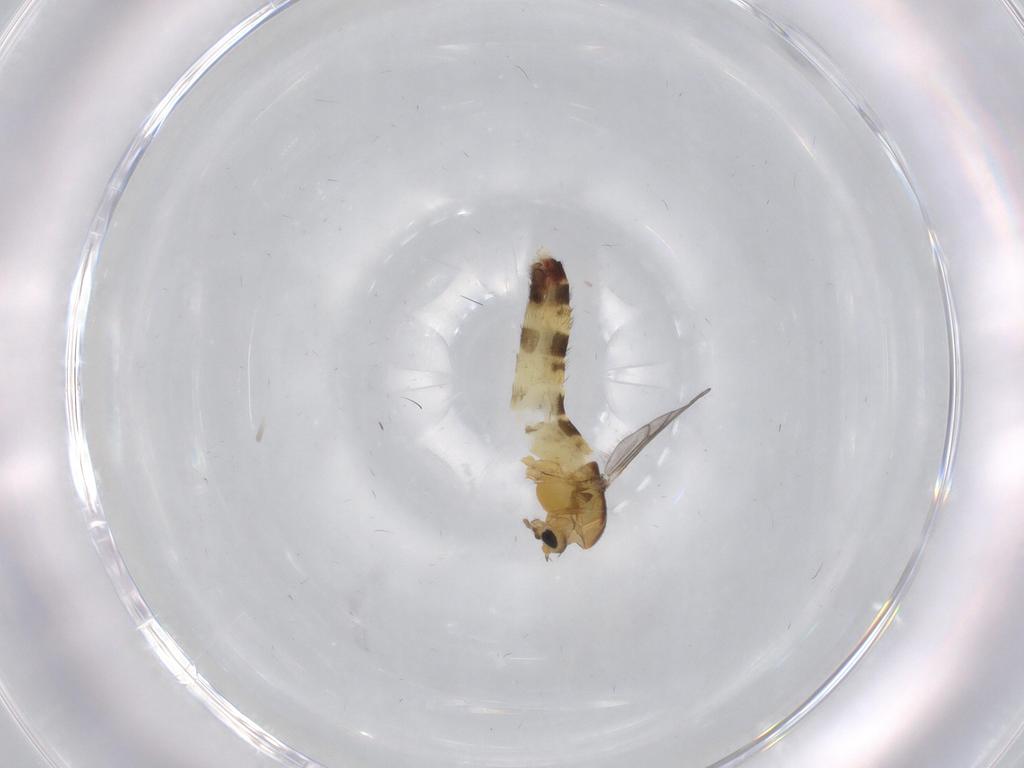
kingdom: Animalia
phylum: Arthropoda
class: Insecta
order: Diptera
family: Chironomidae
